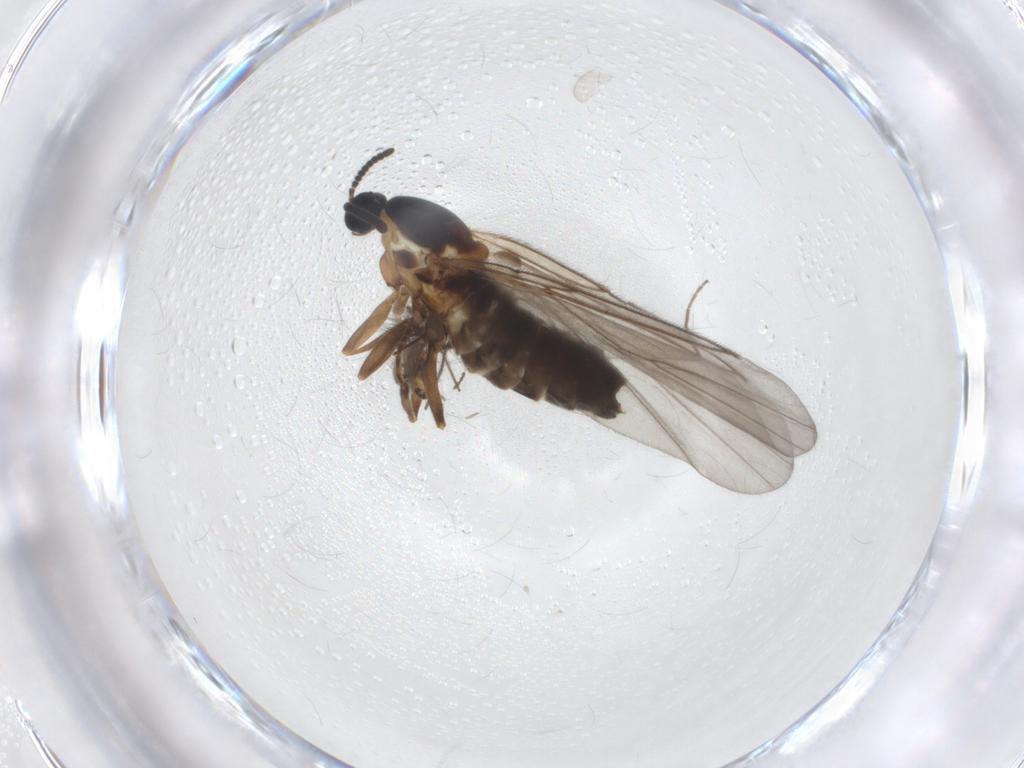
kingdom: Animalia
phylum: Arthropoda
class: Insecta
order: Diptera
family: Scatopsidae
